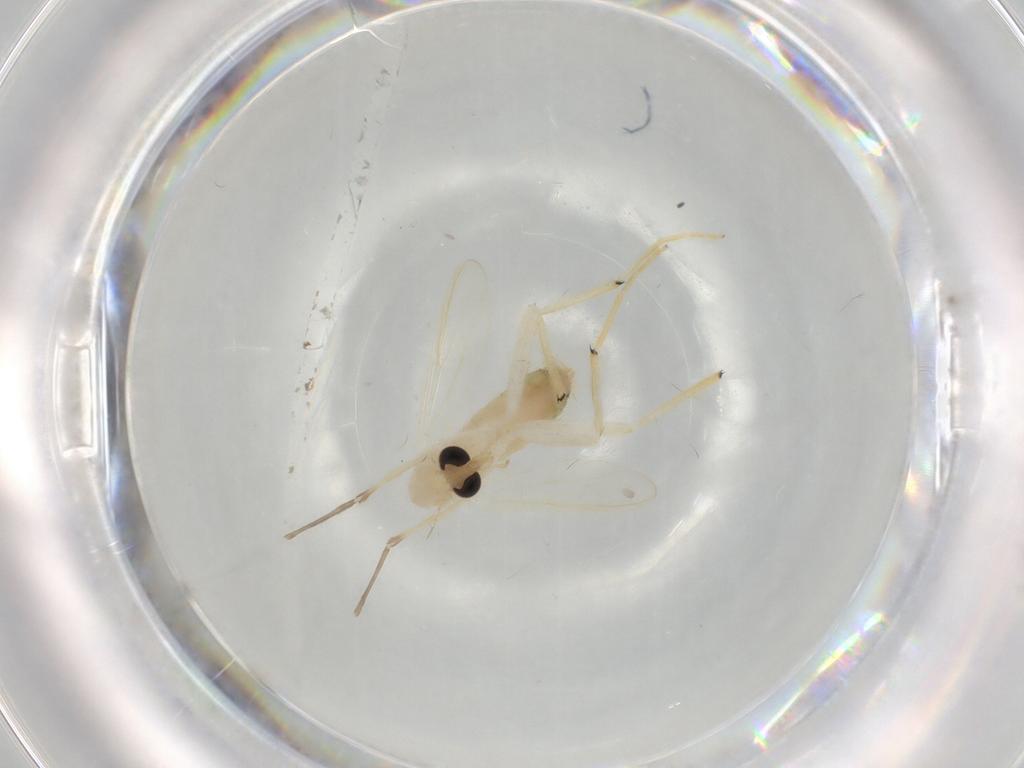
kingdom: Animalia
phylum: Arthropoda
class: Insecta
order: Diptera
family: Chironomidae
